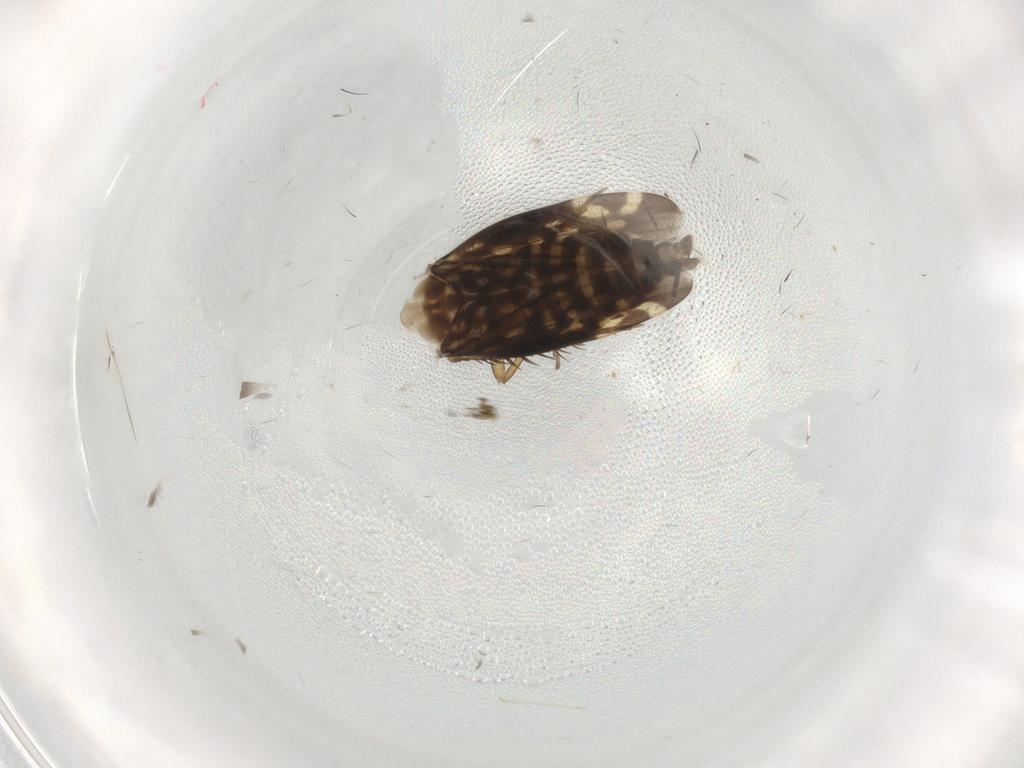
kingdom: Animalia
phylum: Arthropoda
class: Insecta
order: Hemiptera
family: Cicadellidae
